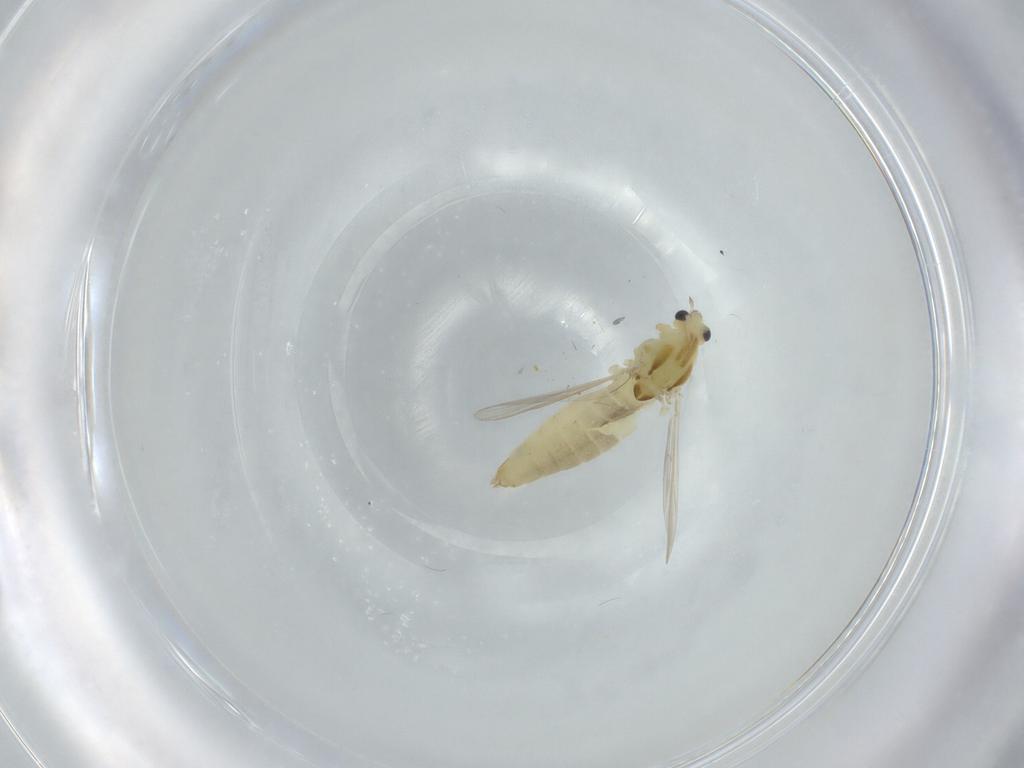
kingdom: Animalia
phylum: Arthropoda
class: Insecta
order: Diptera
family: Chironomidae
